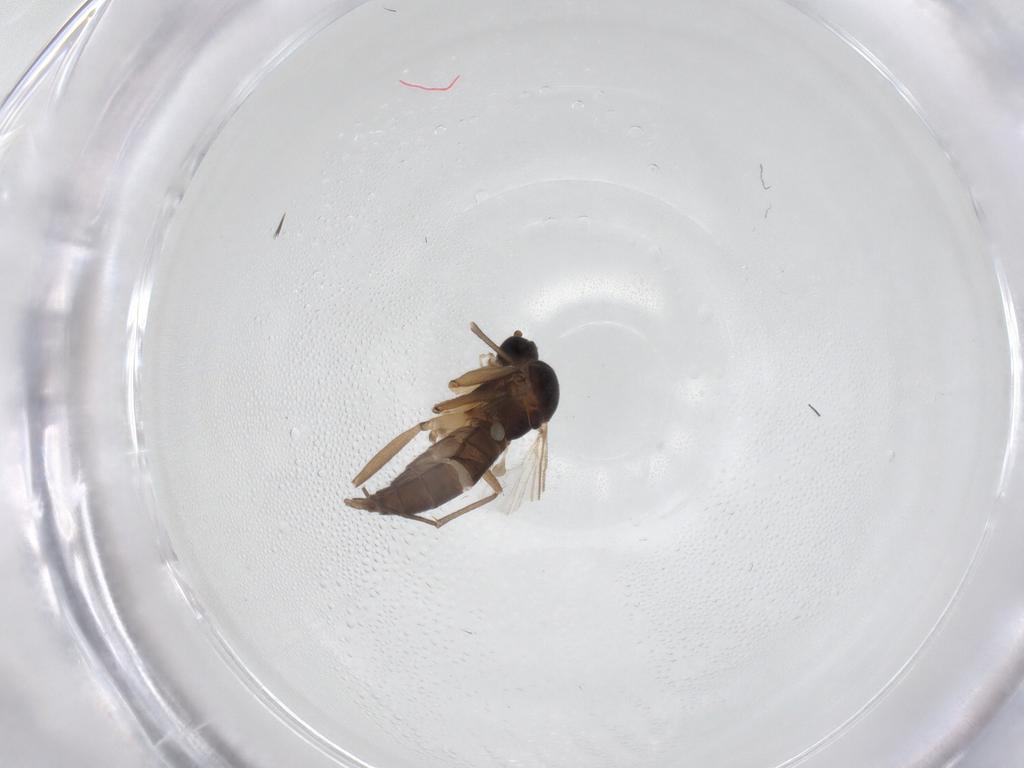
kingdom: Animalia
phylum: Arthropoda
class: Insecta
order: Diptera
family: Sciaridae
